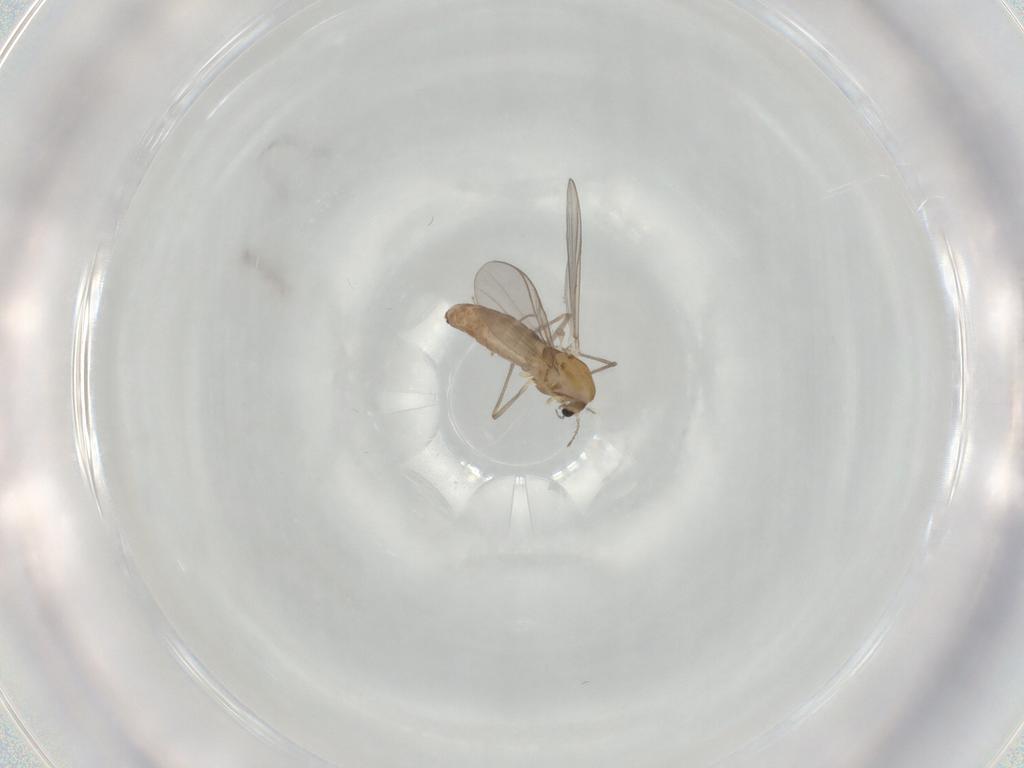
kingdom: Animalia
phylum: Arthropoda
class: Insecta
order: Diptera
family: Chironomidae
